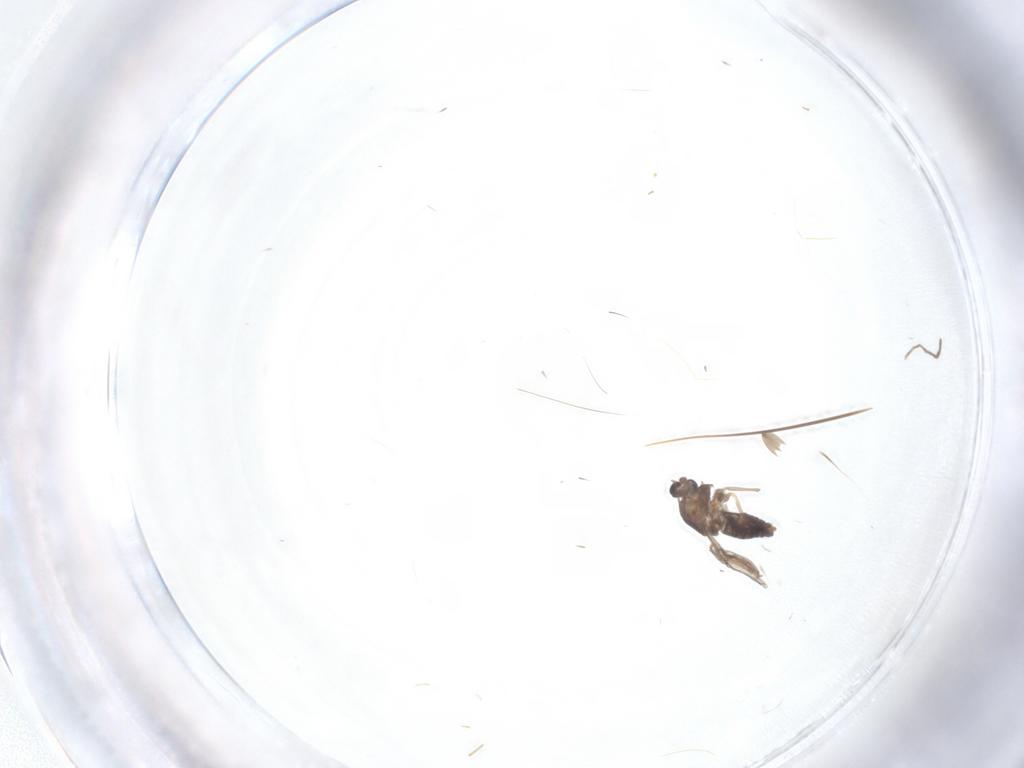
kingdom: Animalia
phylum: Arthropoda
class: Insecta
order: Diptera
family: Chironomidae
